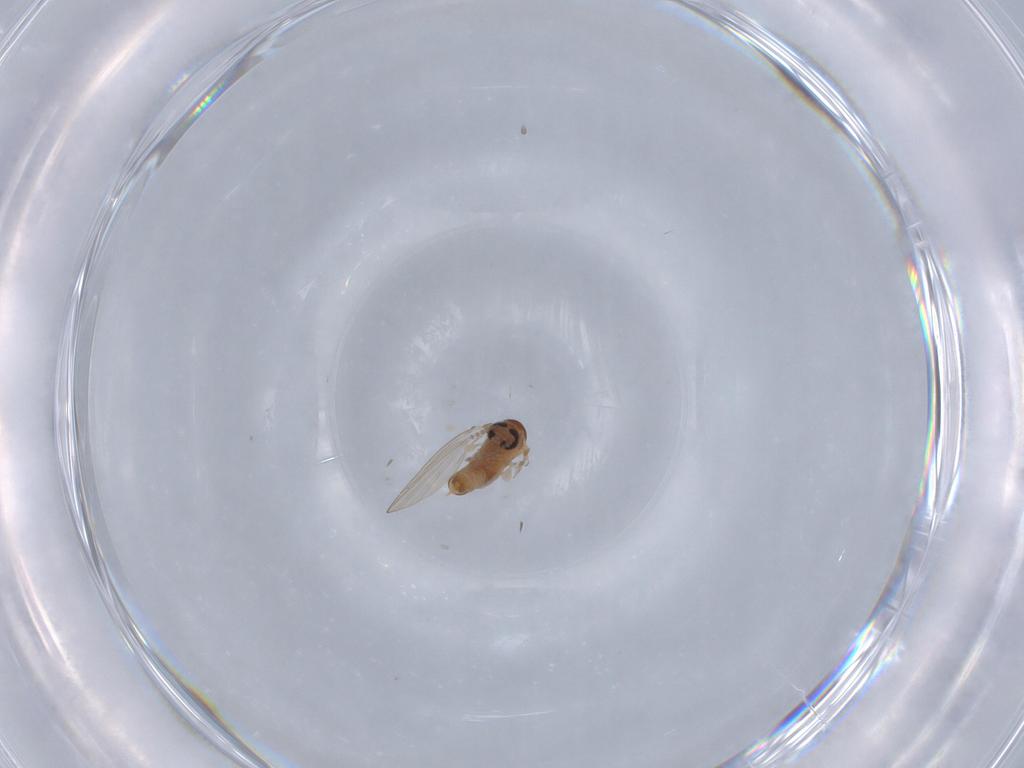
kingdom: Animalia
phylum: Arthropoda
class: Insecta
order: Diptera
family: Psychodidae
